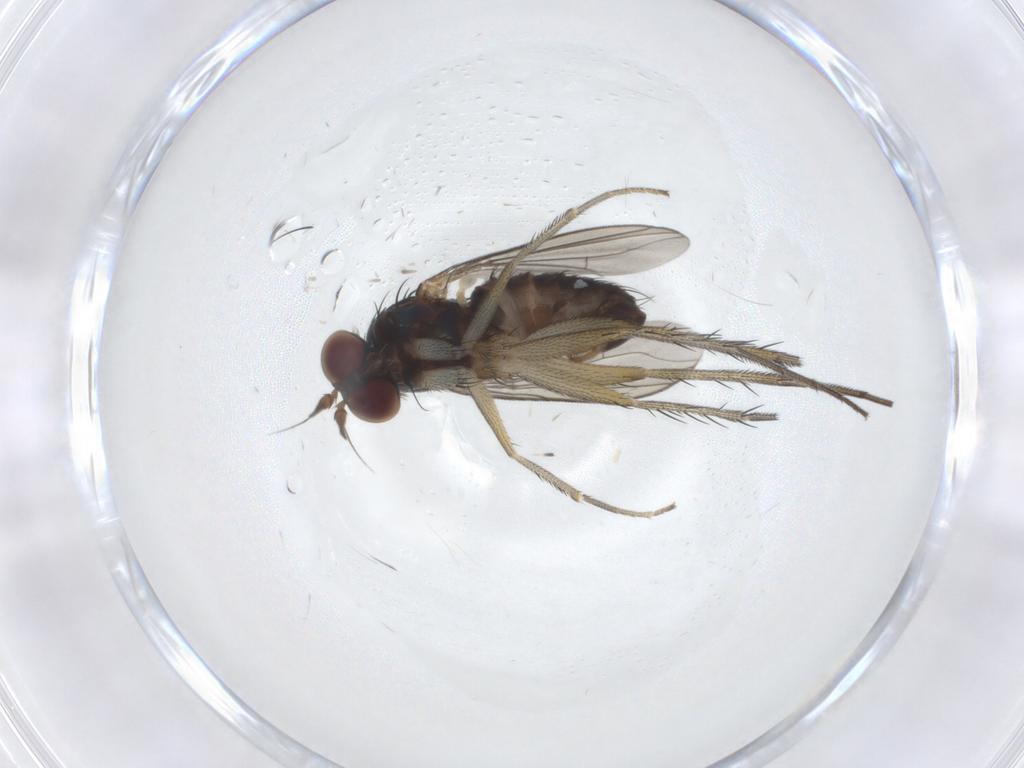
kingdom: Animalia
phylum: Arthropoda
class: Insecta
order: Diptera
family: Dolichopodidae
